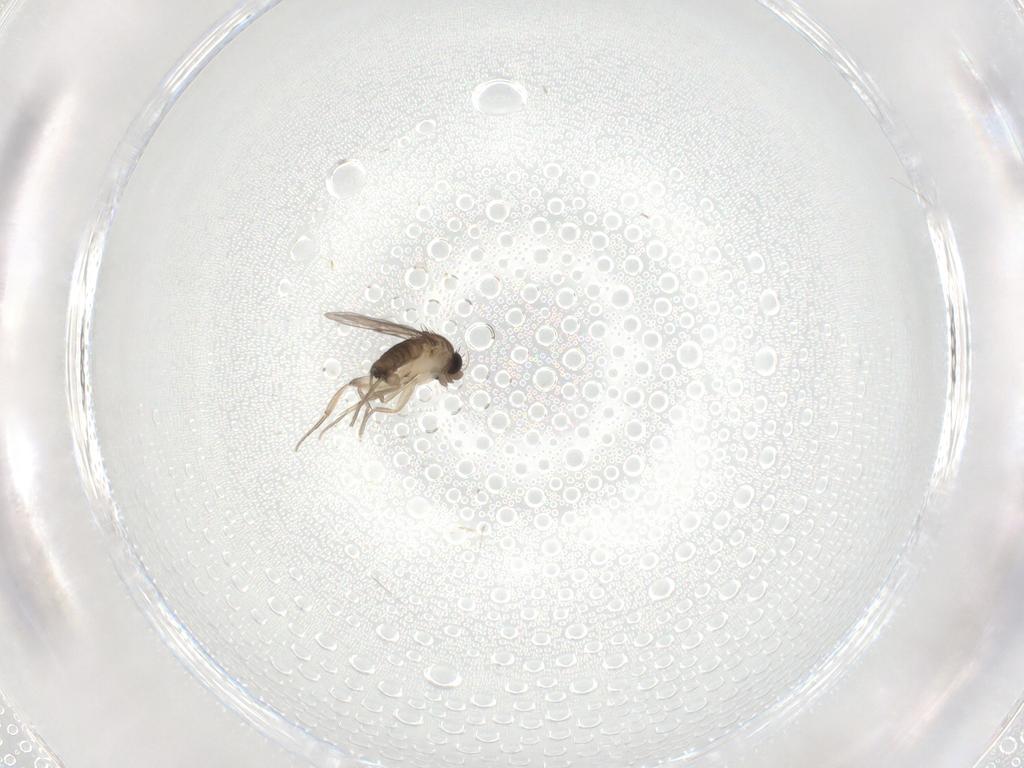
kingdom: Animalia
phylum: Arthropoda
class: Insecta
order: Diptera
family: Phoridae
